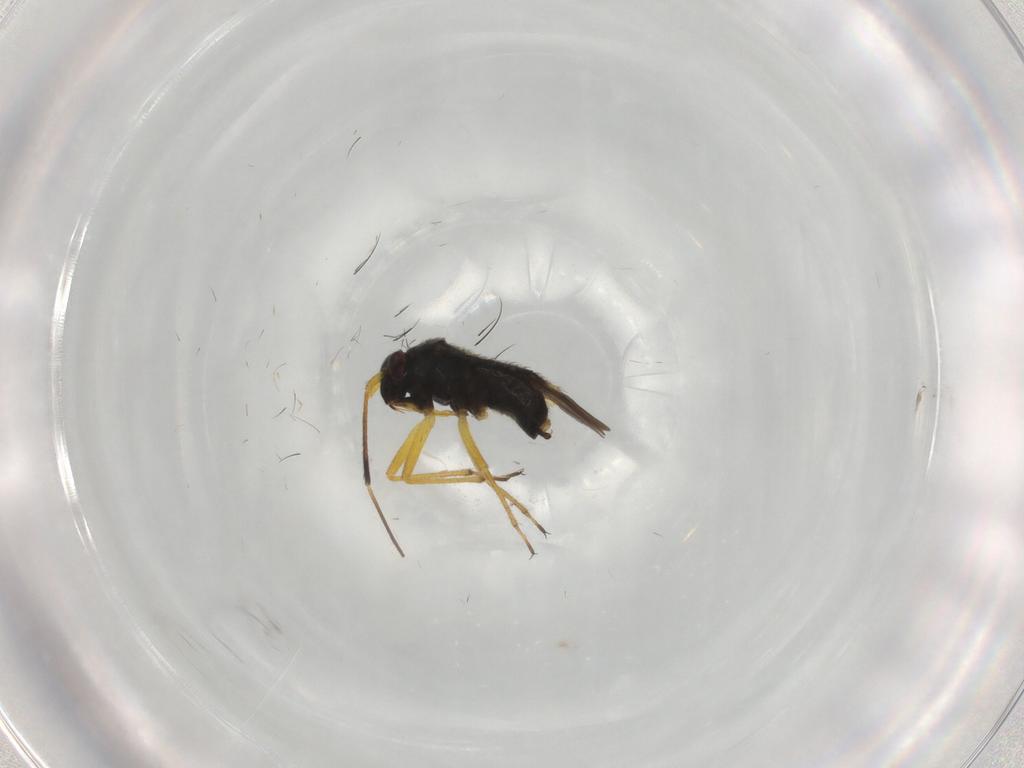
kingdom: Animalia
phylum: Arthropoda
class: Insecta
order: Hemiptera
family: Miridae
